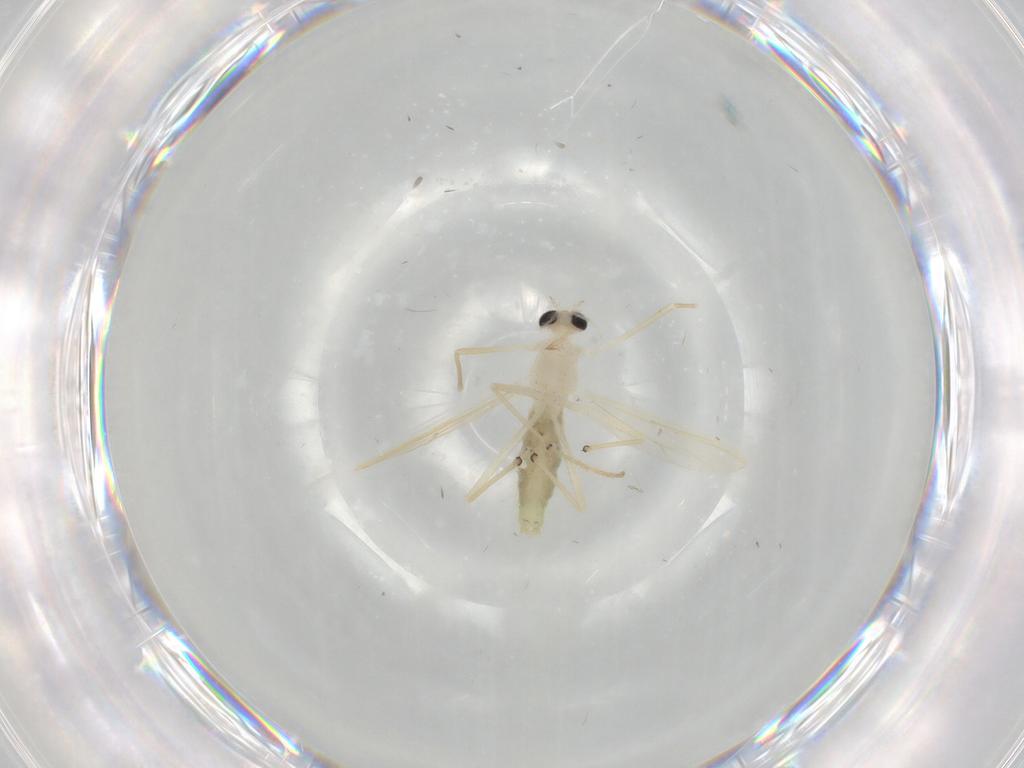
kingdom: Animalia
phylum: Arthropoda
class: Insecta
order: Diptera
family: Chironomidae
